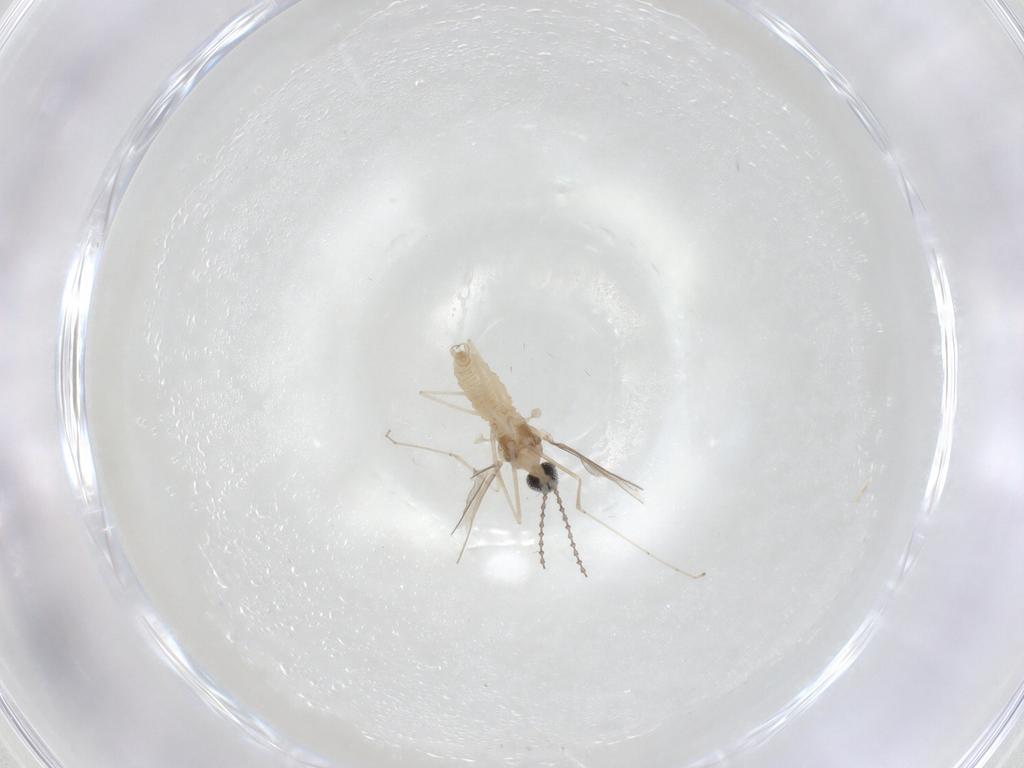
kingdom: Animalia
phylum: Arthropoda
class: Insecta
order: Diptera
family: Cecidomyiidae
